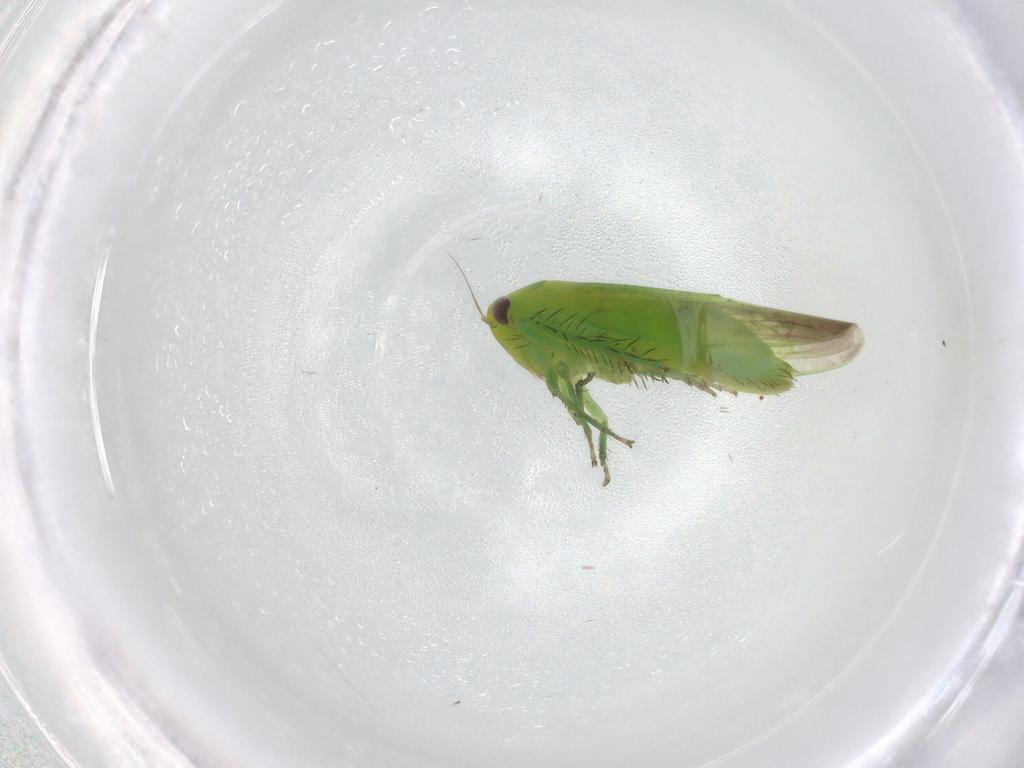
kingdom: Animalia
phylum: Arthropoda
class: Insecta
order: Hemiptera
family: Cicadellidae
